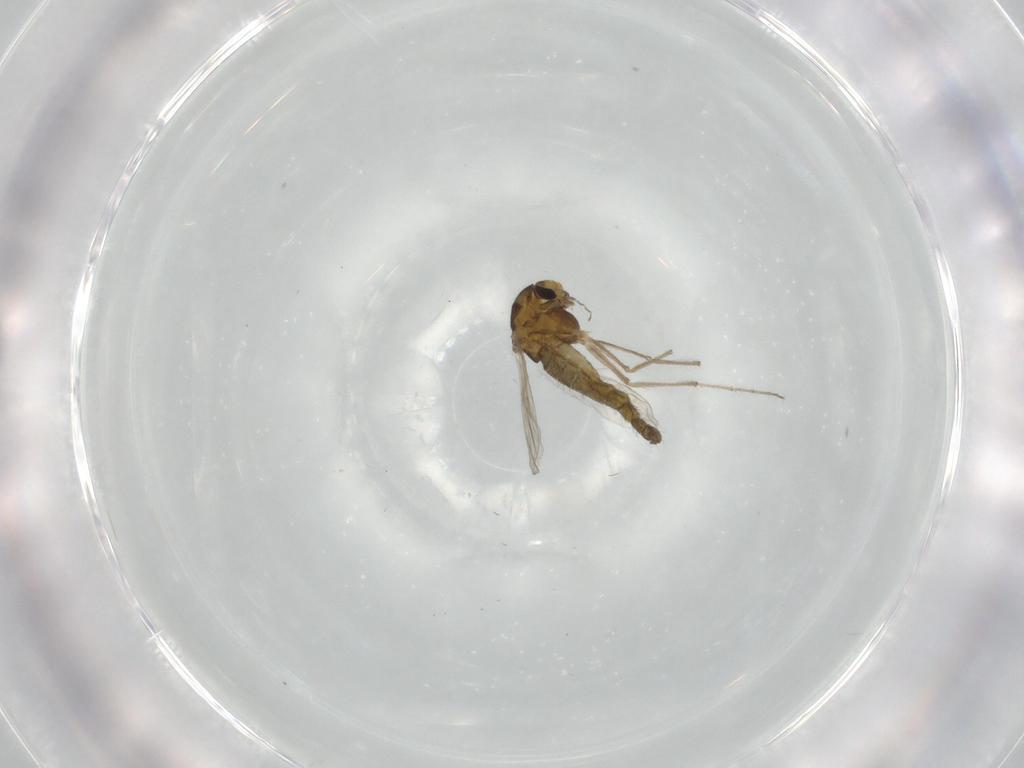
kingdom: Animalia
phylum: Arthropoda
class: Insecta
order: Diptera
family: Chironomidae
